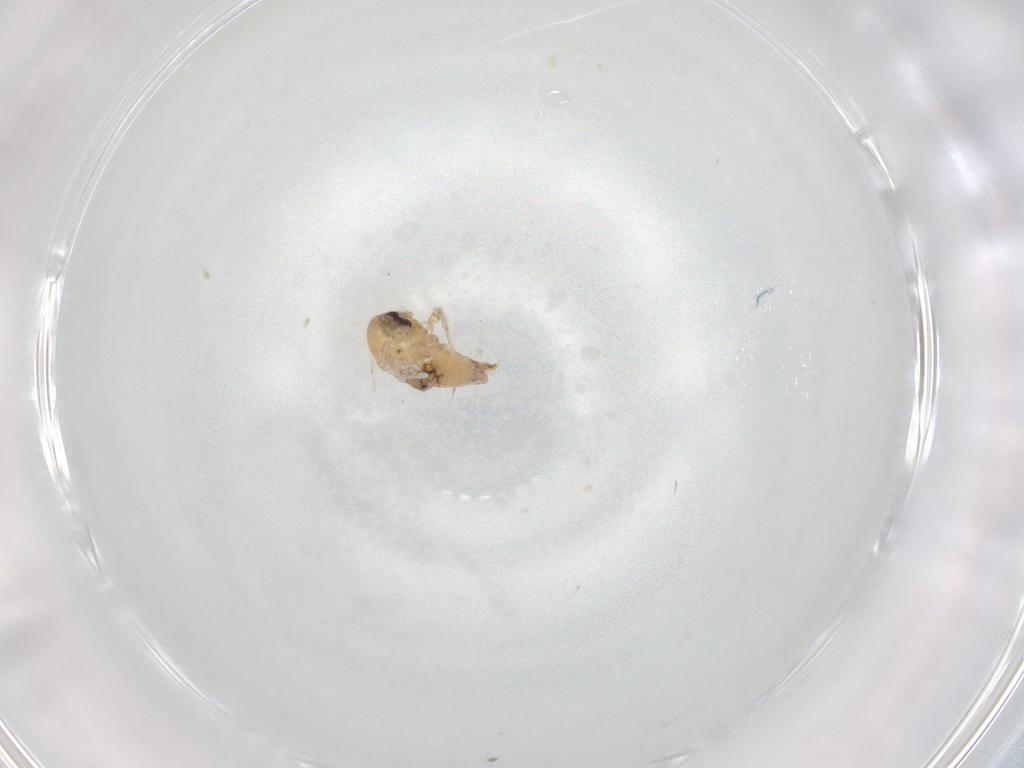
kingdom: Animalia
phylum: Arthropoda
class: Insecta
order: Diptera
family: Psychodidae
